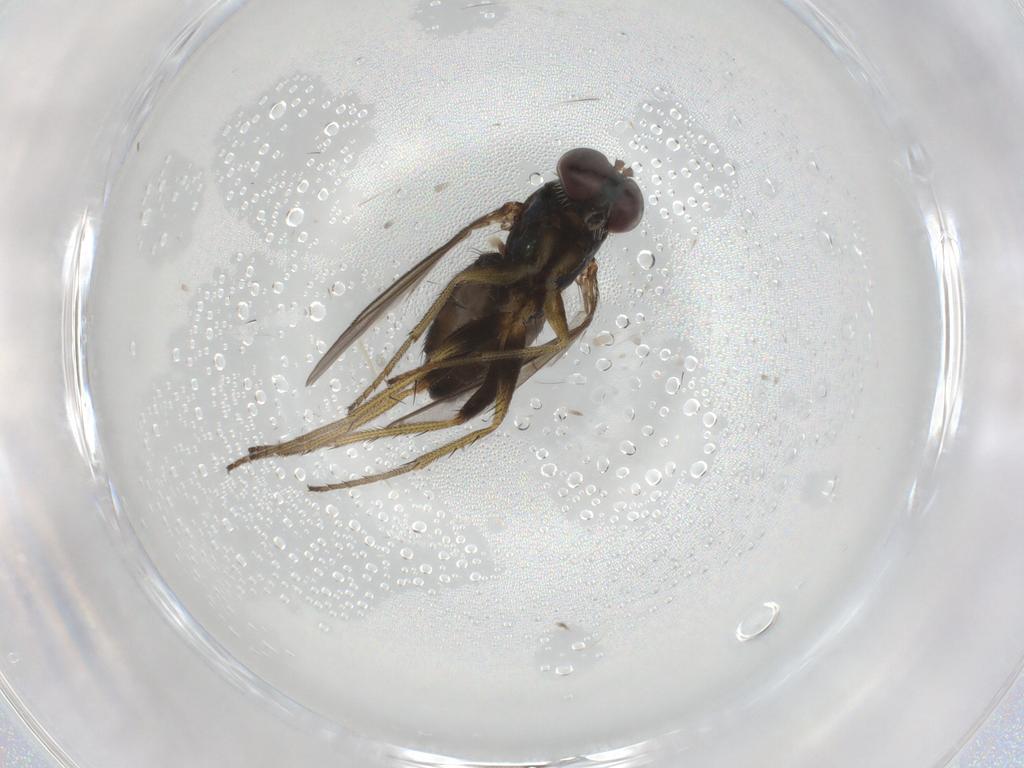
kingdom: Animalia
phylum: Arthropoda
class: Insecta
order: Diptera
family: Cecidomyiidae
